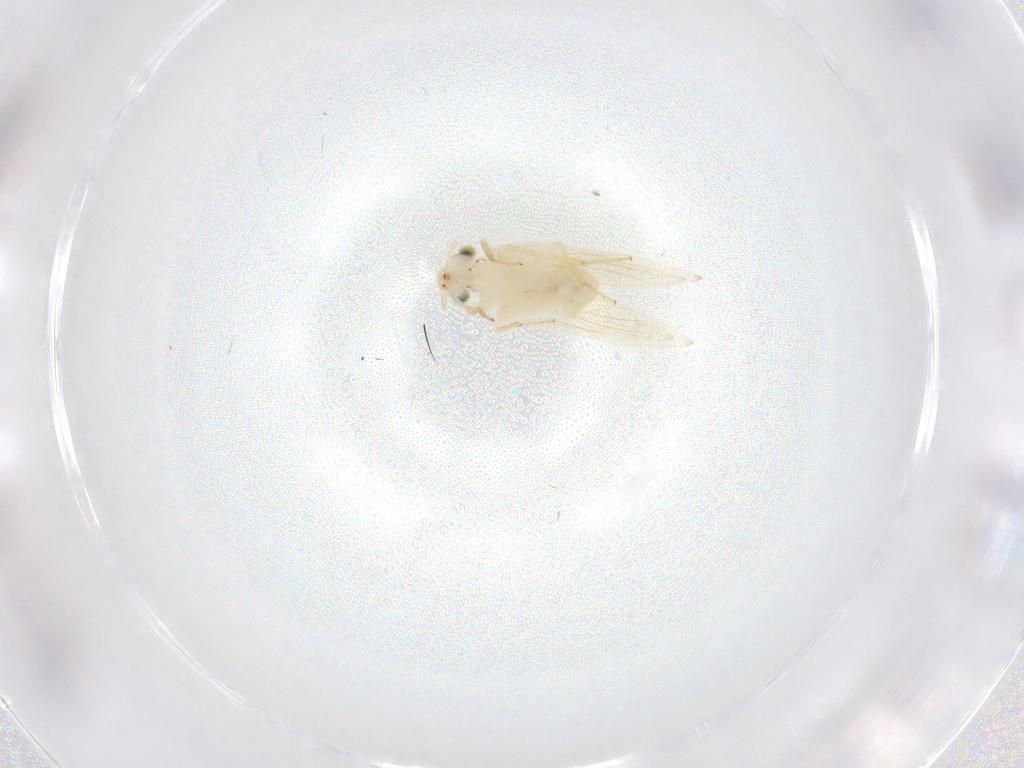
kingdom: Animalia
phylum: Arthropoda
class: Insecta
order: Psocodea
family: Lepidopsocidae
